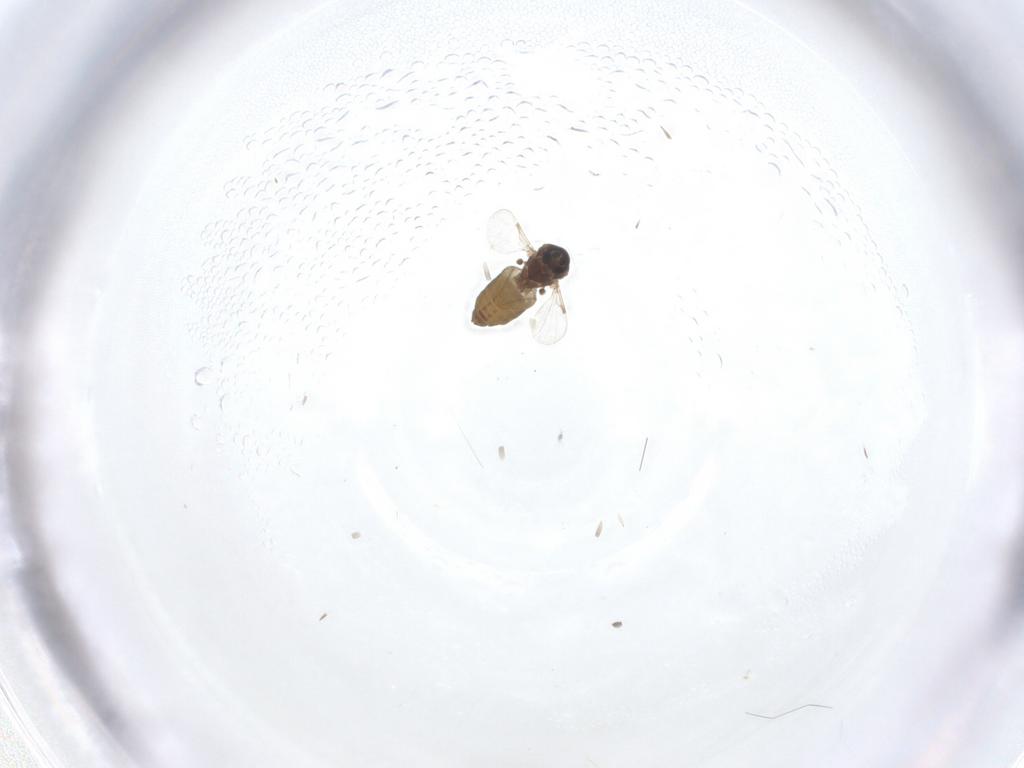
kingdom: Animalia
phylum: Arthropoda
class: Insecta
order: Diptera
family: Ceratopogonidae
